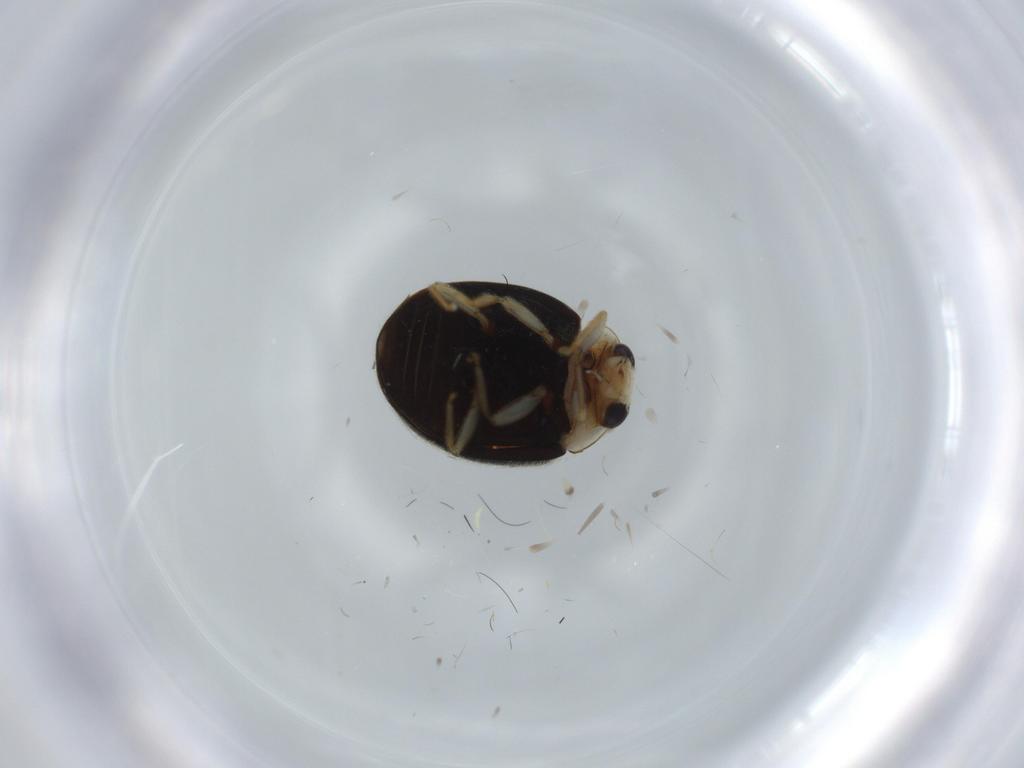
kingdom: Animalia
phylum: Arthropoda
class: Insecta
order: Coleoptera
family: Coccinellidae
